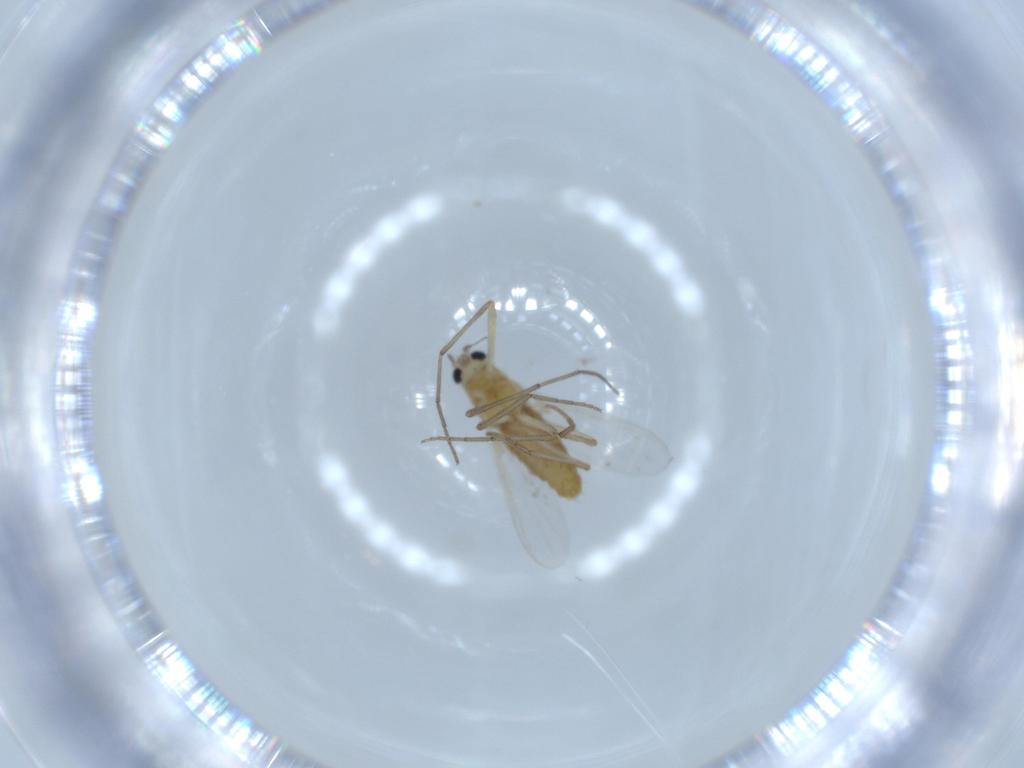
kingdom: Animalia
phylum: Arthropoda
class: Insecta
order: Diptera
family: Chironomidae
